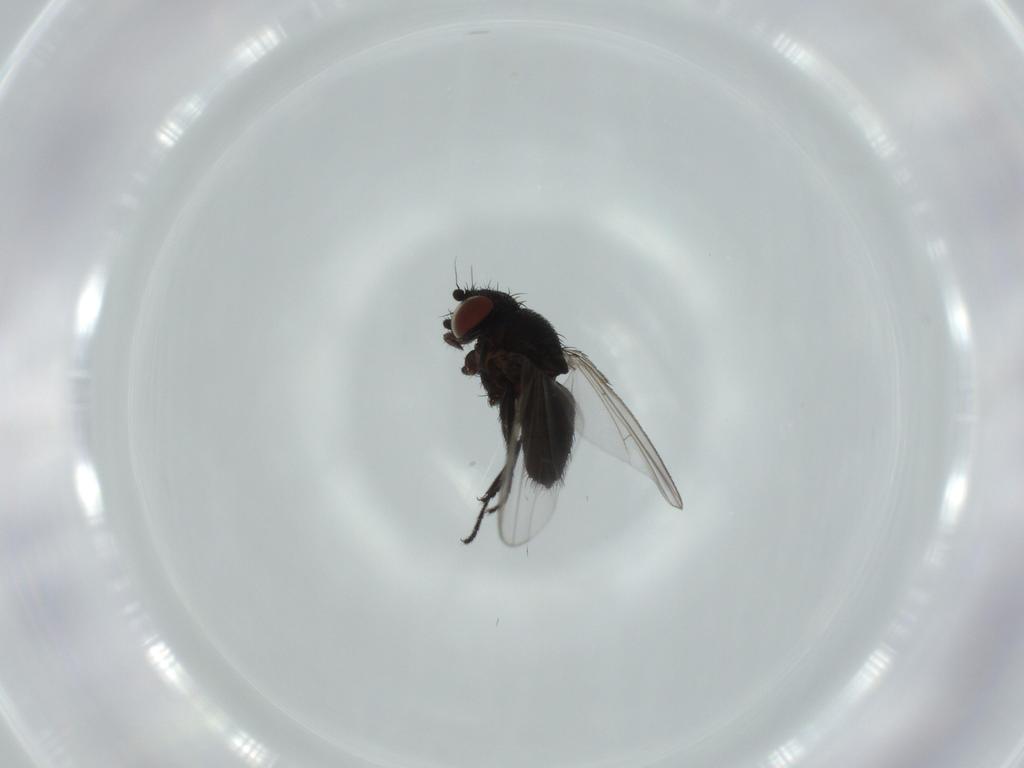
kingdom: Animalia
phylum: Arthropoda
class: Insecta
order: Diptera
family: Milichiidae
